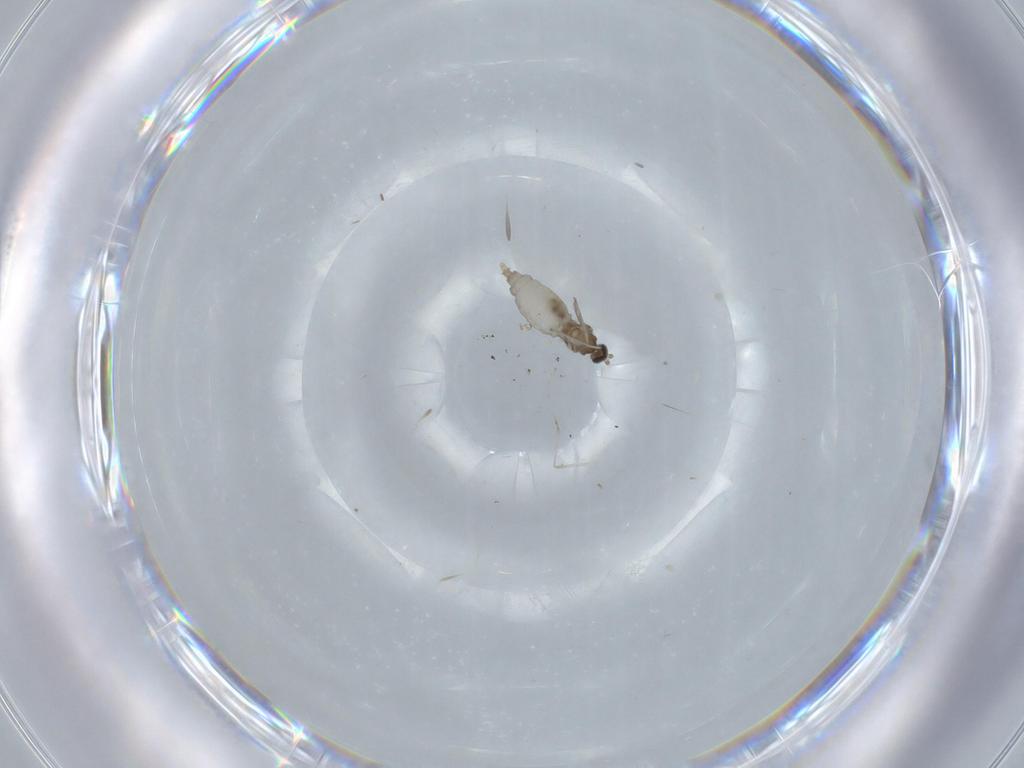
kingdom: Animalia
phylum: Arthropoda
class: Insecta
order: Diptera
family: Cecidomyiidae
